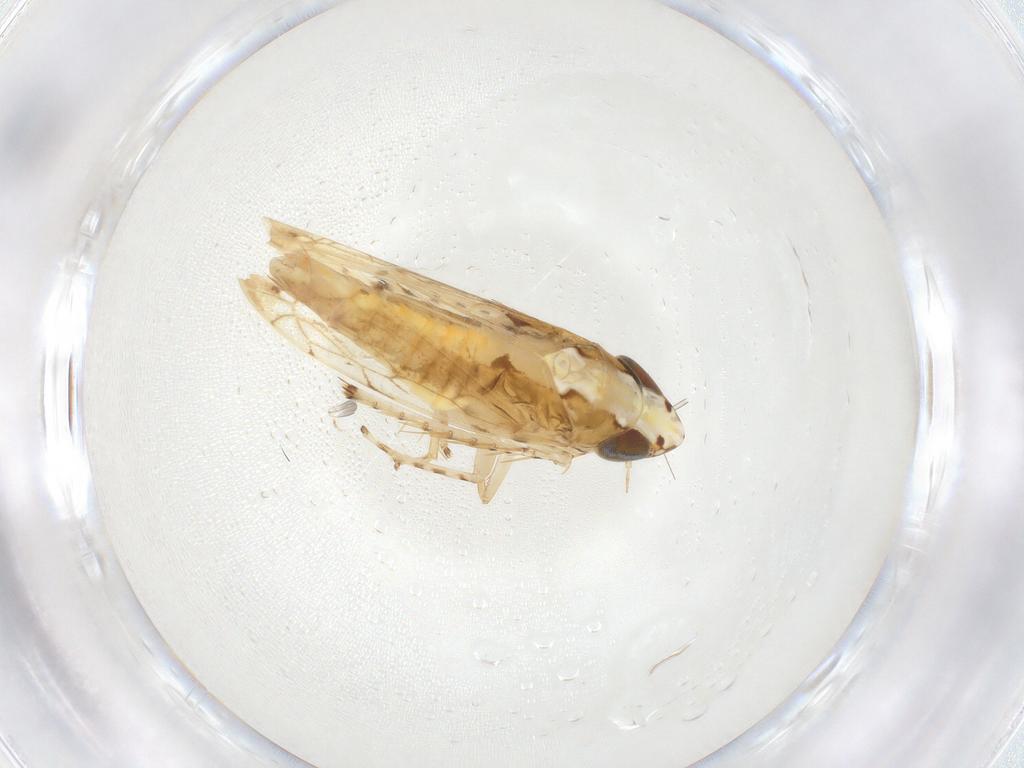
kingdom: Animalia
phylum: Arthropoda
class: Insecta
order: Hemiptera
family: Cicadellidae
